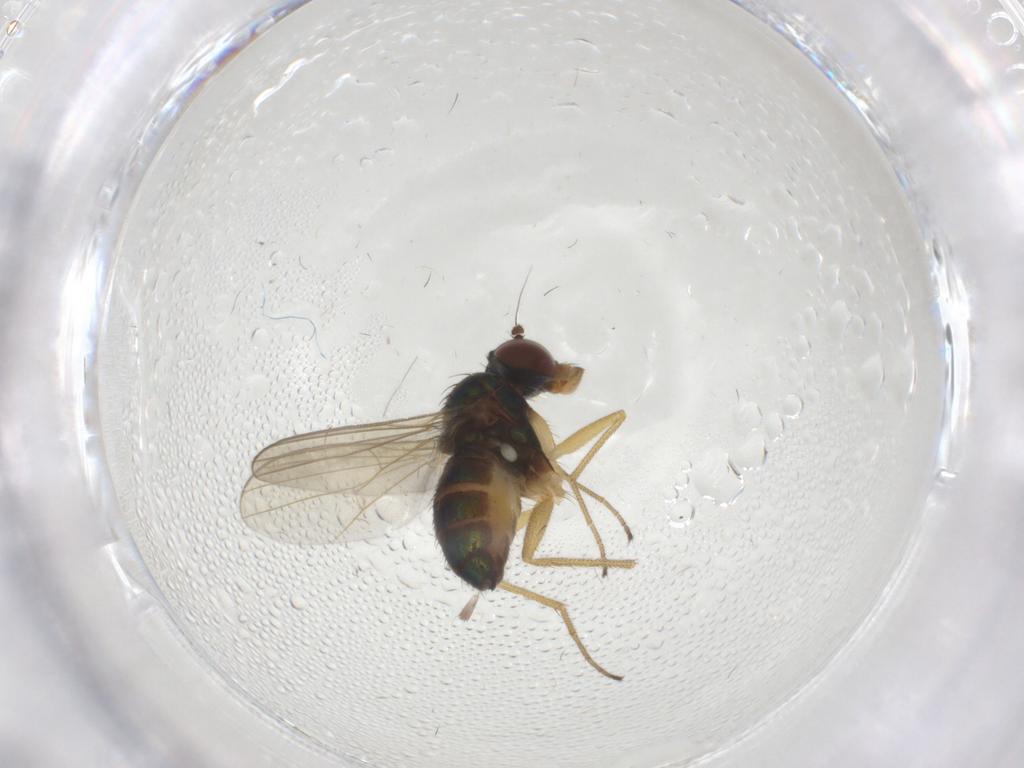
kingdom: Animalia
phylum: Arthropoda
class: Insecta
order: Diptera
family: Dolichopodidae
